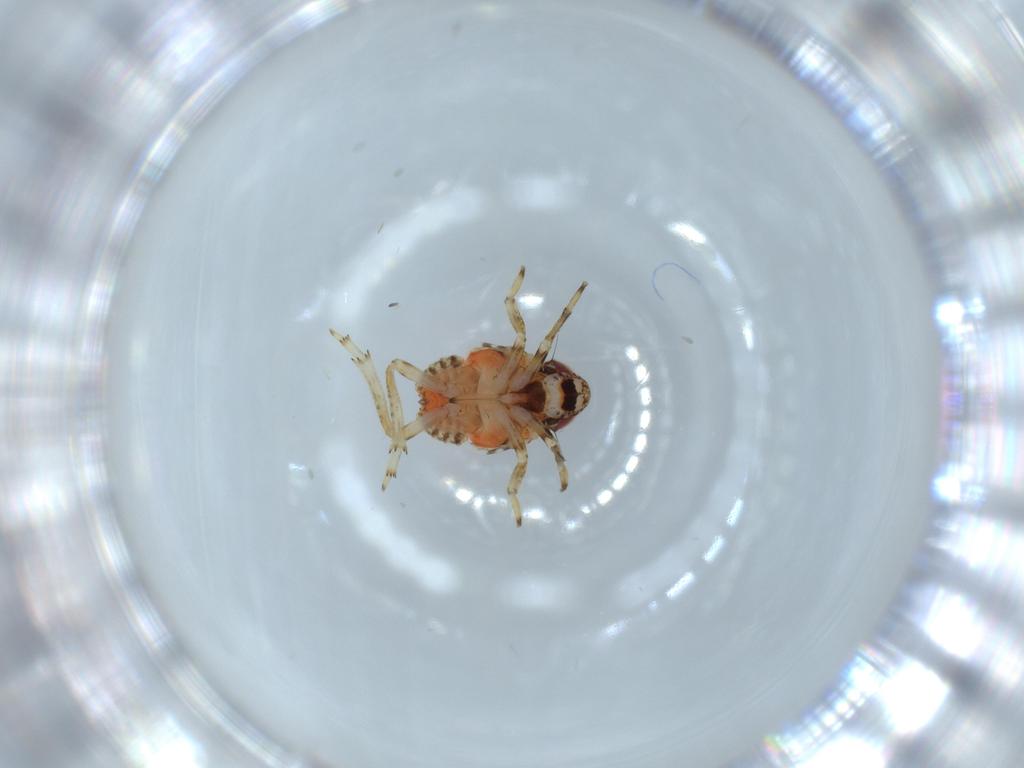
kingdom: Animalia
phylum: Arthropoda
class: Insecta
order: Hemiptera
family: Issidae
